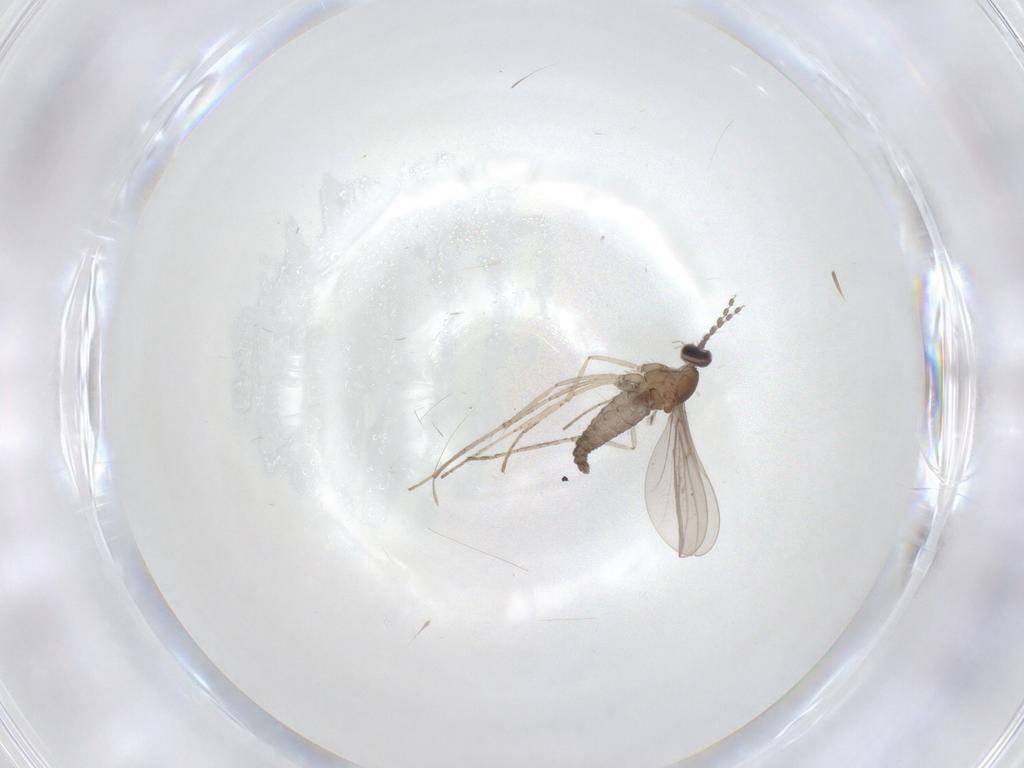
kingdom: Animalia
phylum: Arthropoda
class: Insecta
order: Diptera
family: Cecidomyiidae
